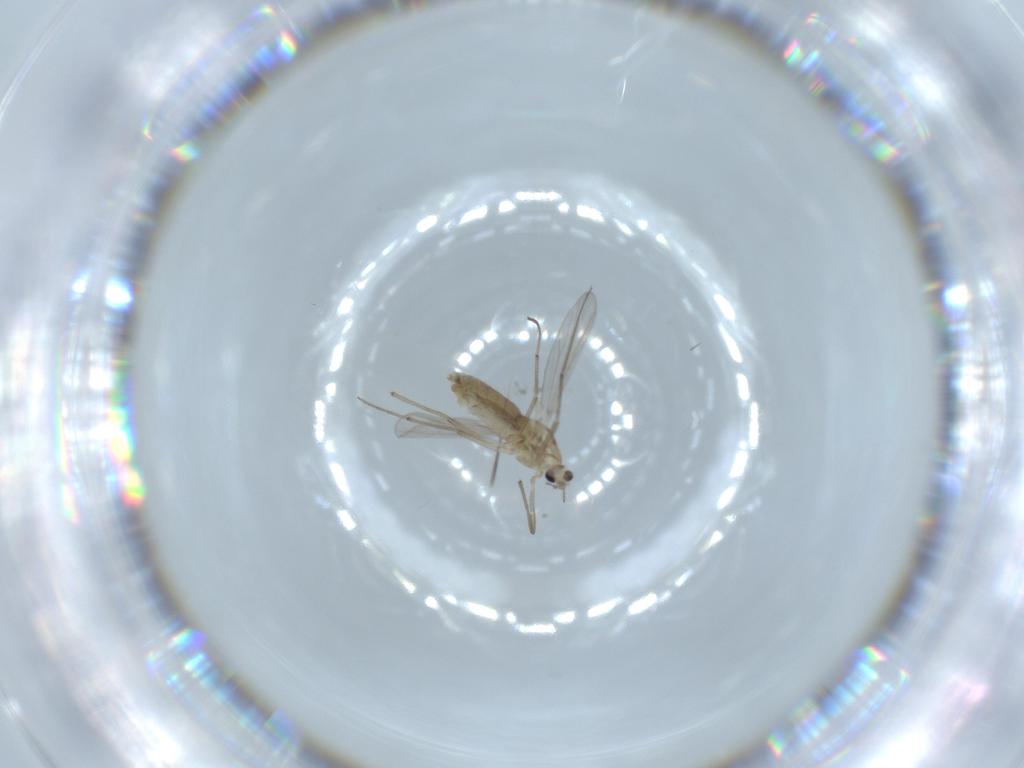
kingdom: Animalia
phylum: Arthropoda
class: Insecta
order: Diptera
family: Chironomidae
